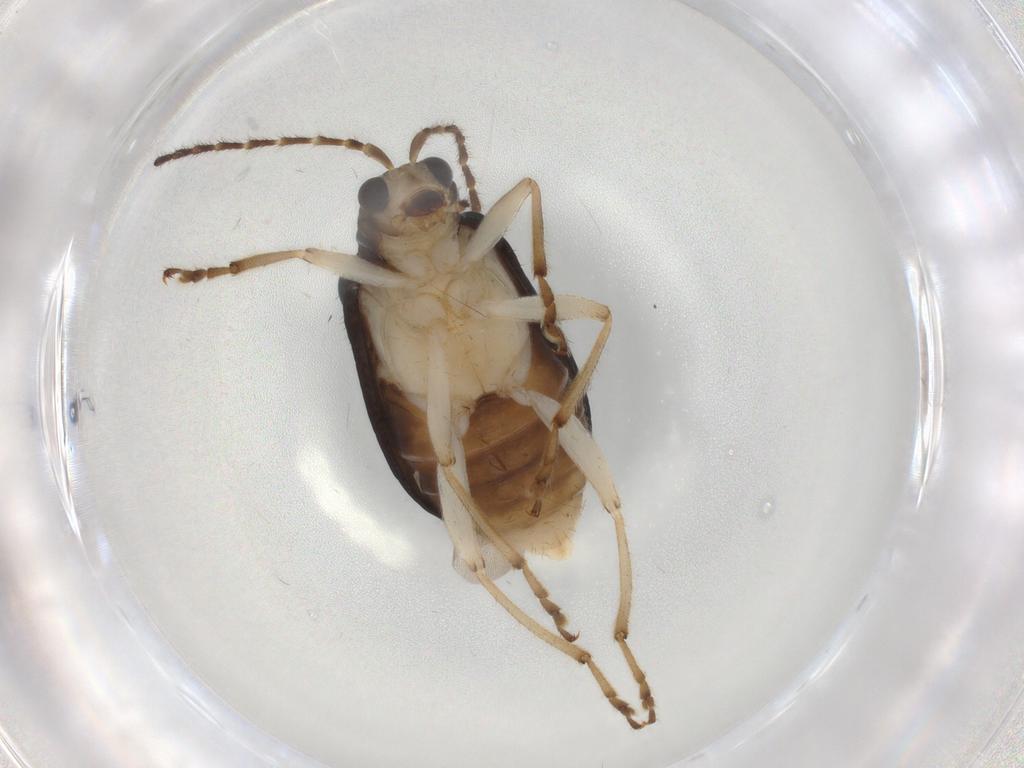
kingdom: Animalia
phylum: Arthropoda
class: Insecta
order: Coleoptera
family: Chrysomelidae
